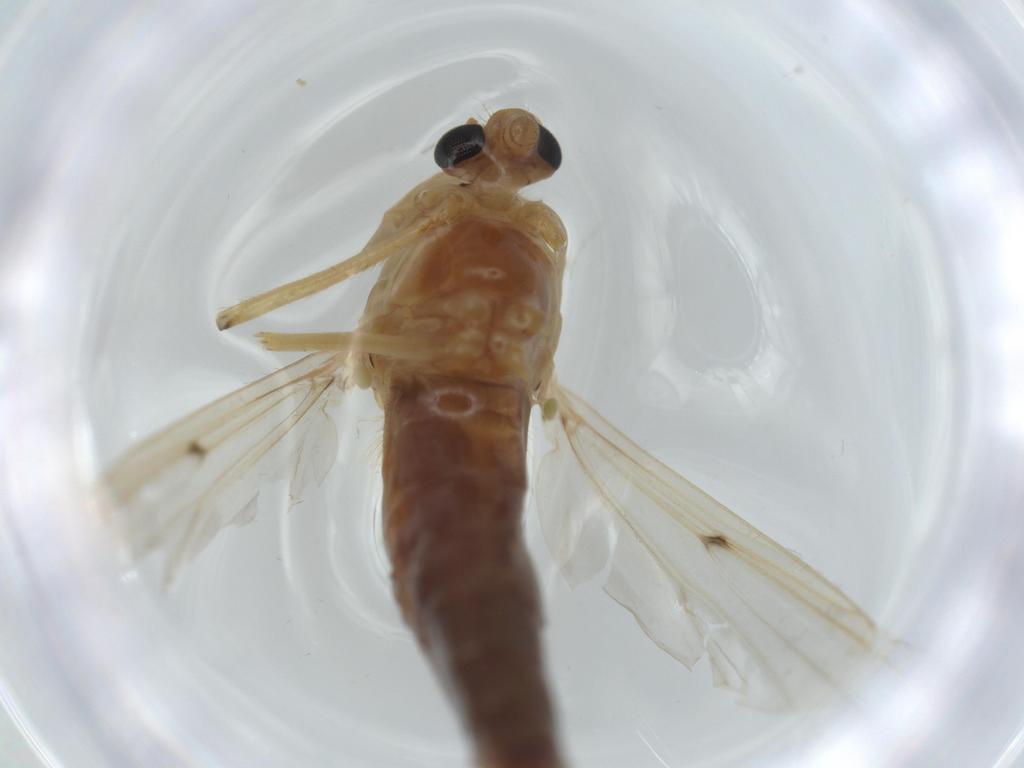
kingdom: Animalia
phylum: Arthropoda
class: Insecta
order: Diptera
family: Chironomidae
